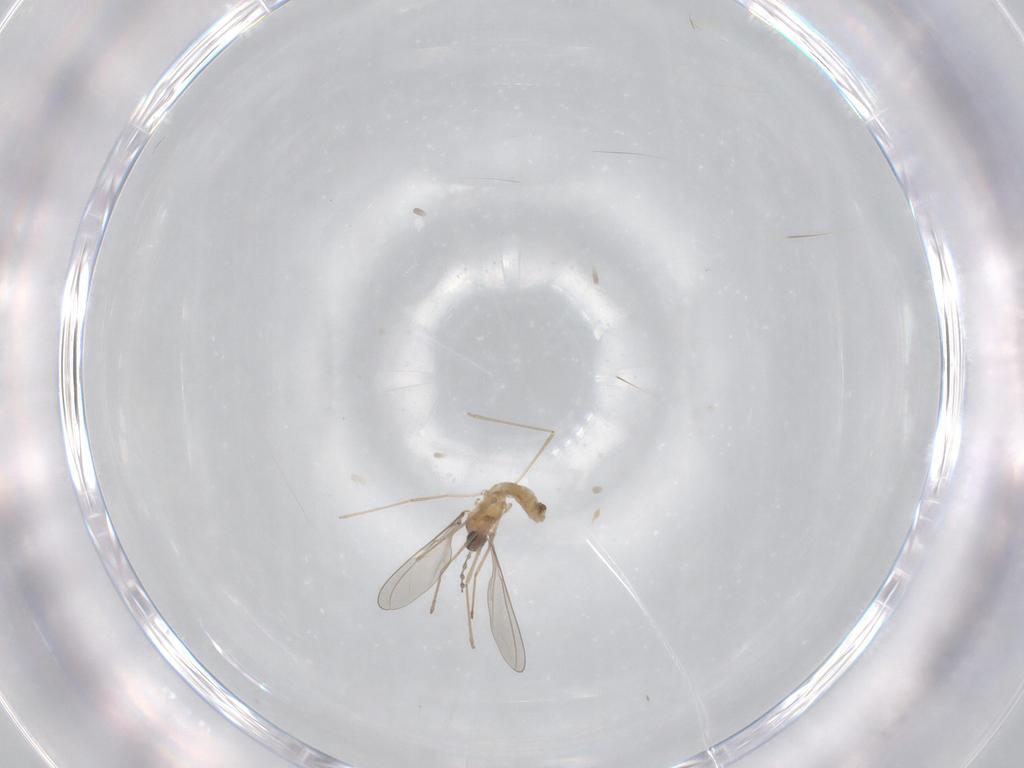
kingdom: Animalia
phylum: Arthropoda
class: Insecta
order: Diptera
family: Cecidomyiidae
